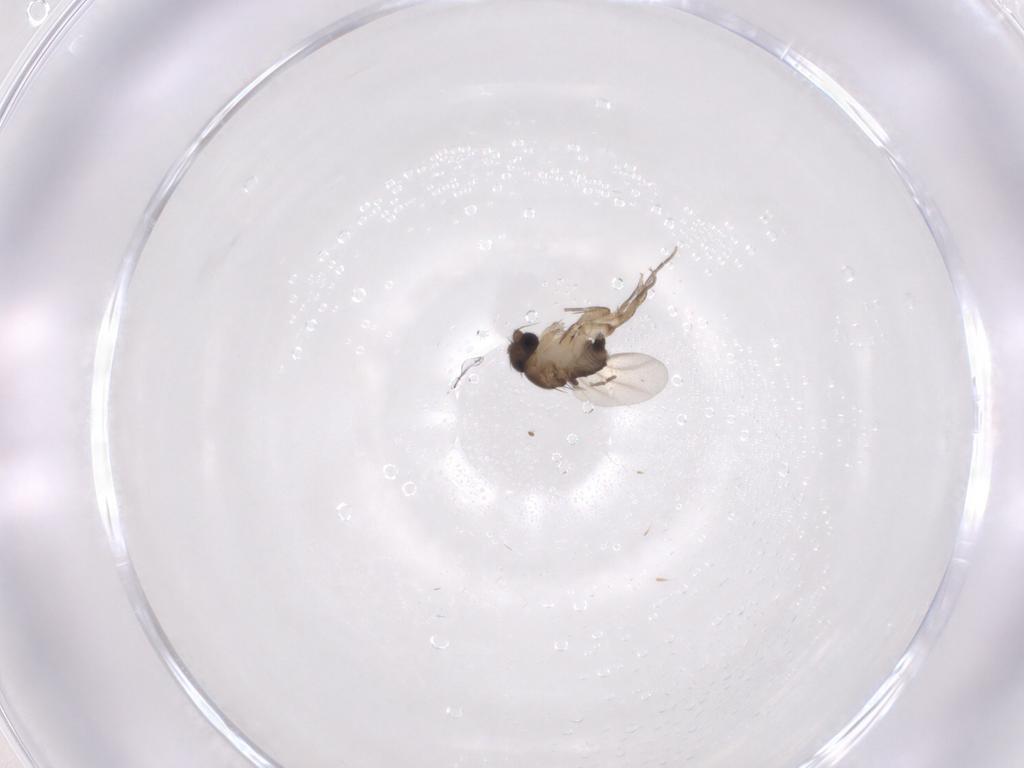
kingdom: Animalia
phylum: Arthropoda
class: Insecta
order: Diptera
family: Phoridae
